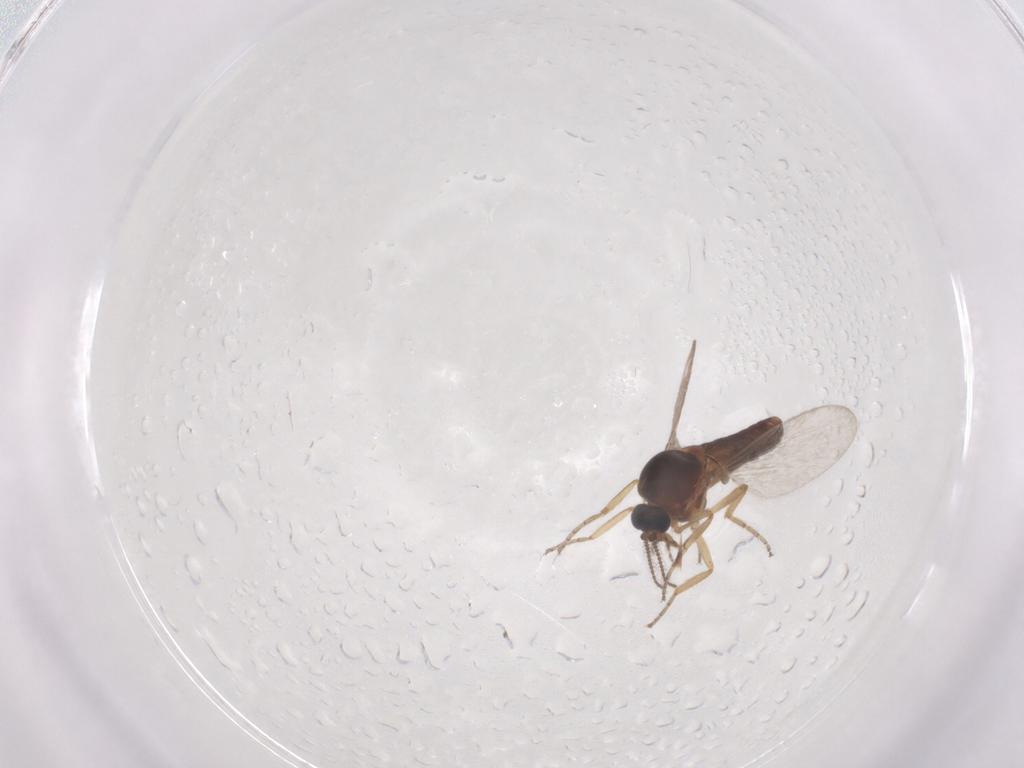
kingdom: Animalia
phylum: Arthropoda
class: Insecta
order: Diptera
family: Ceratopogonidae
